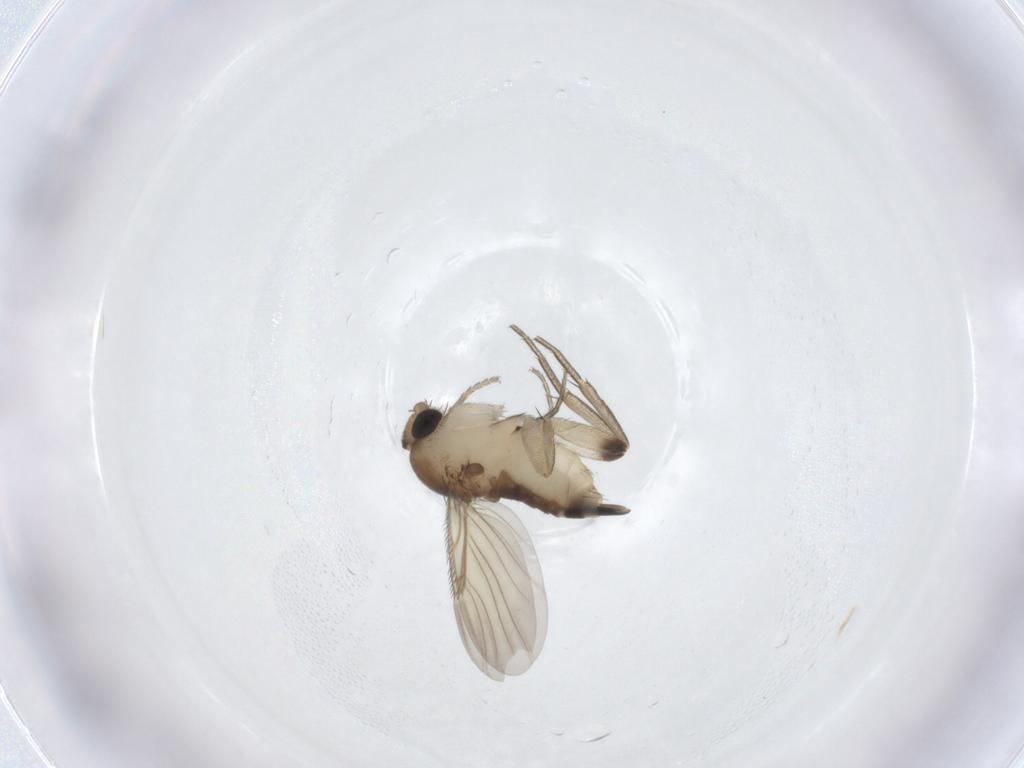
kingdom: Animalia
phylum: Arthropoda
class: Insecta
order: Diptera
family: Phoridae
